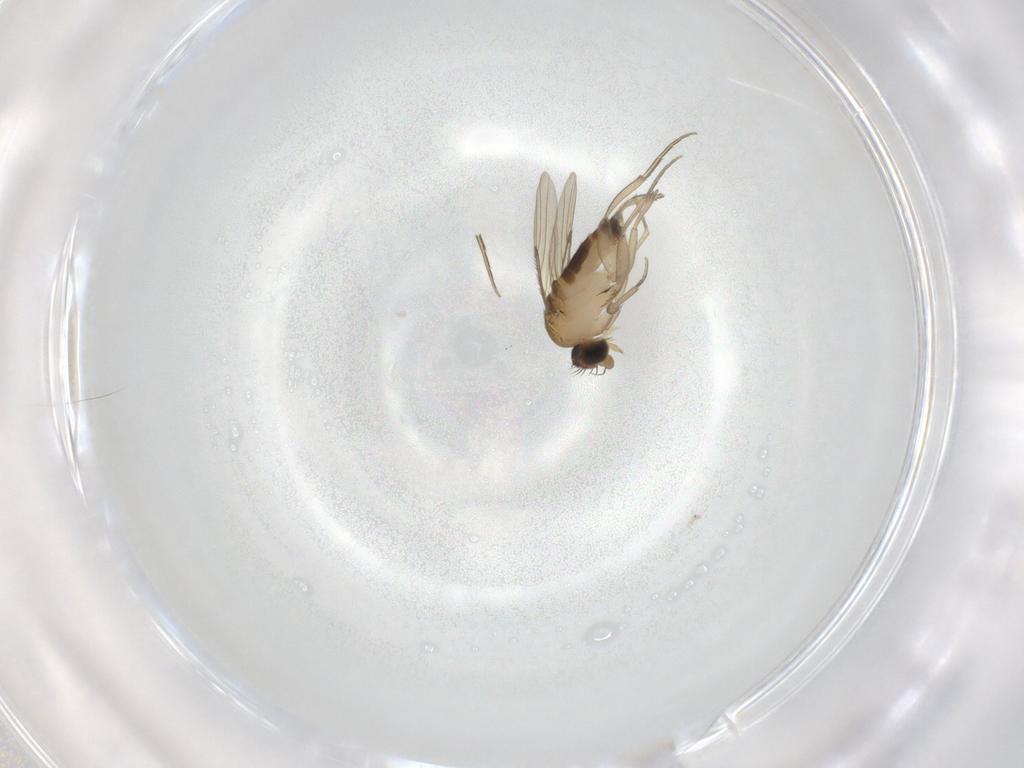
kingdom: Animalia
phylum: Arthropoda
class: Insecta
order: Diptera
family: Phoridae
